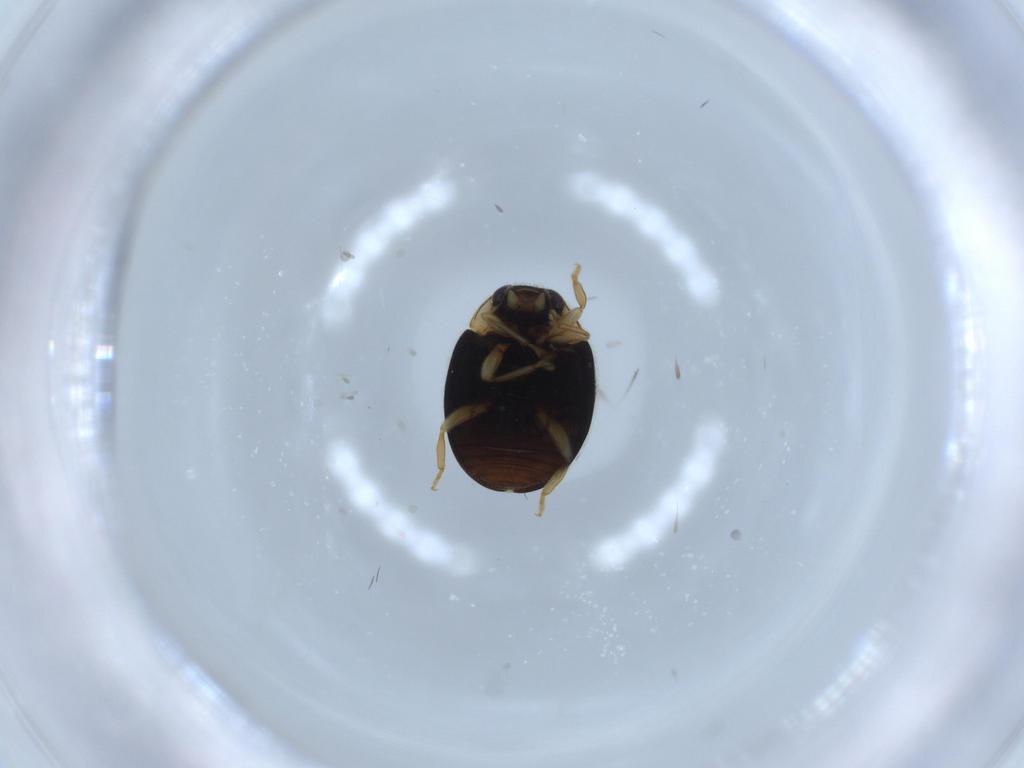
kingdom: Animalia
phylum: Arthropoda
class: Insecta
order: Coleoptera
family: Coccinellidae
